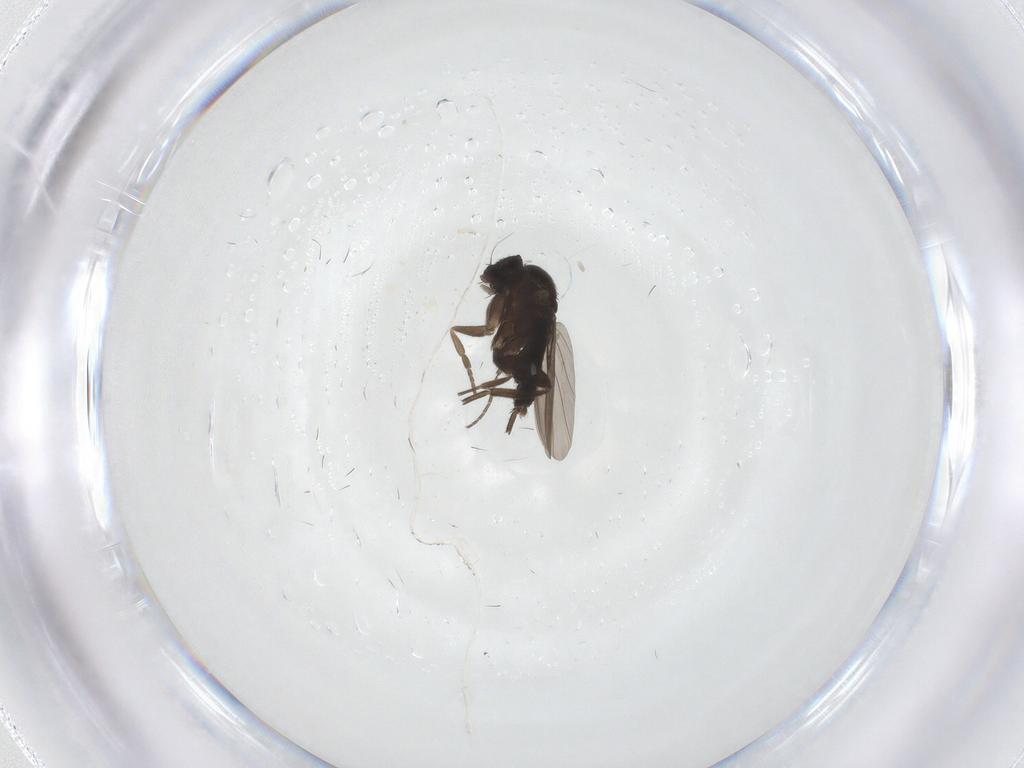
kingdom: Animalia
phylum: Arthropoda
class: Insecta
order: Diptera
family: Phoridae
